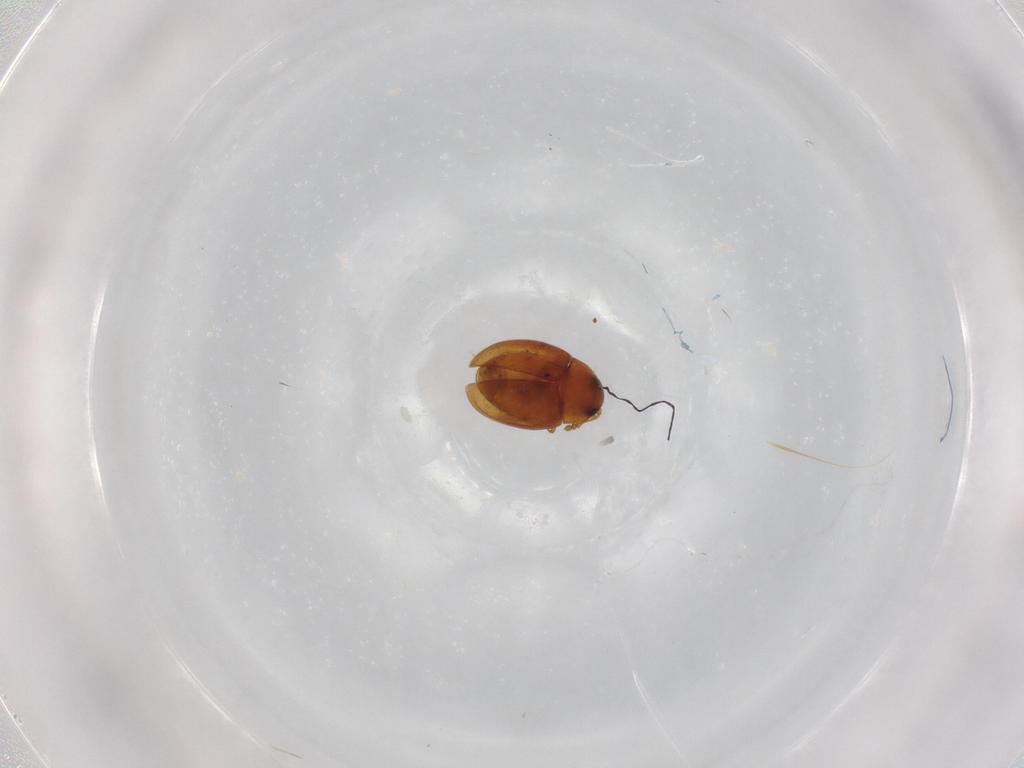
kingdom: Animalia
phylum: Arthropoda
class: Insecta
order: Coleoptera
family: Cryptophagidae
